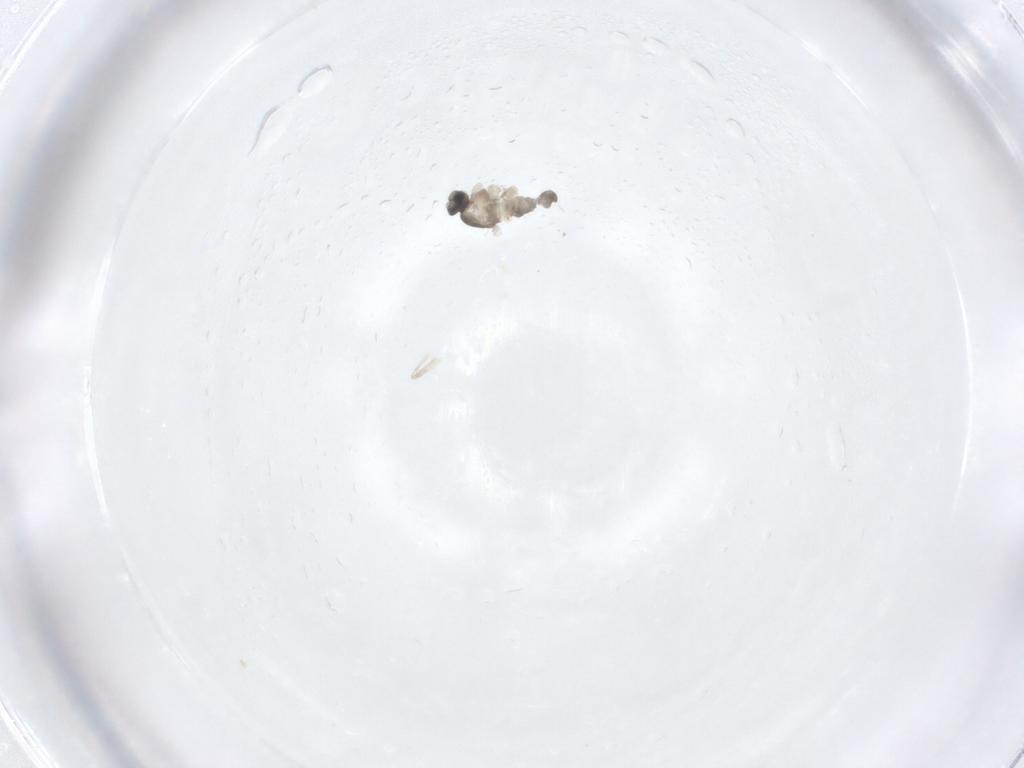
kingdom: Animalia
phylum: Arthropoda
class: Insecta
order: Diptera
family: Cecidomyiidae
